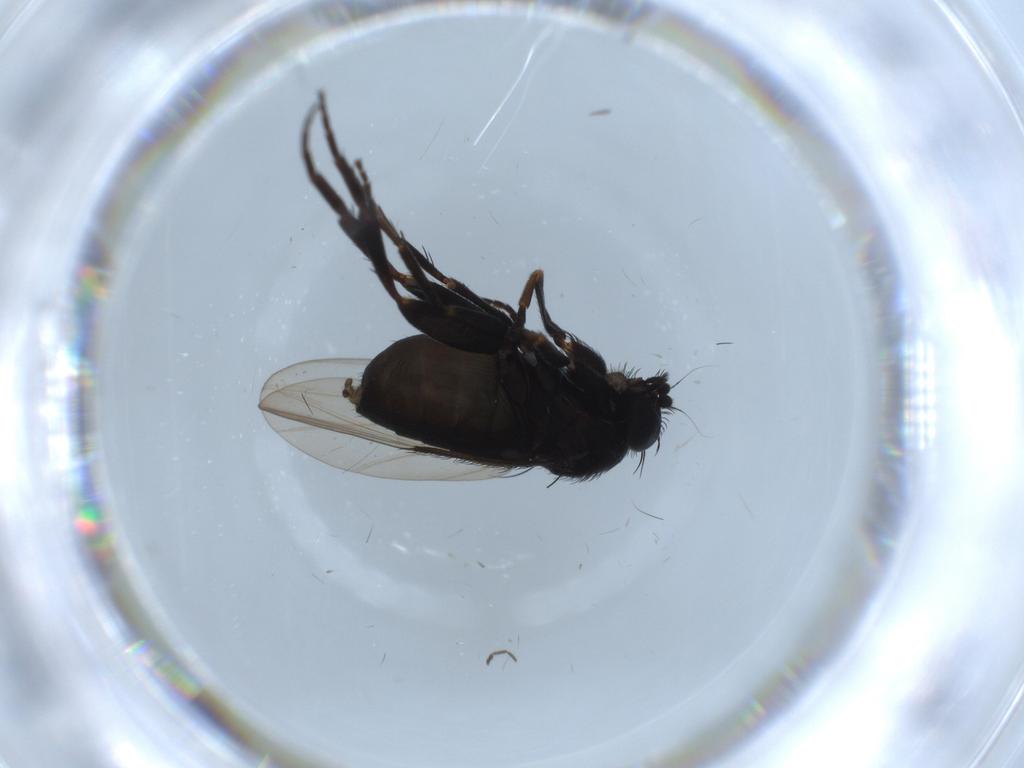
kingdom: Animalia
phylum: Arthropoda
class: Insecta
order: Diptera
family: Mycetophilidae
